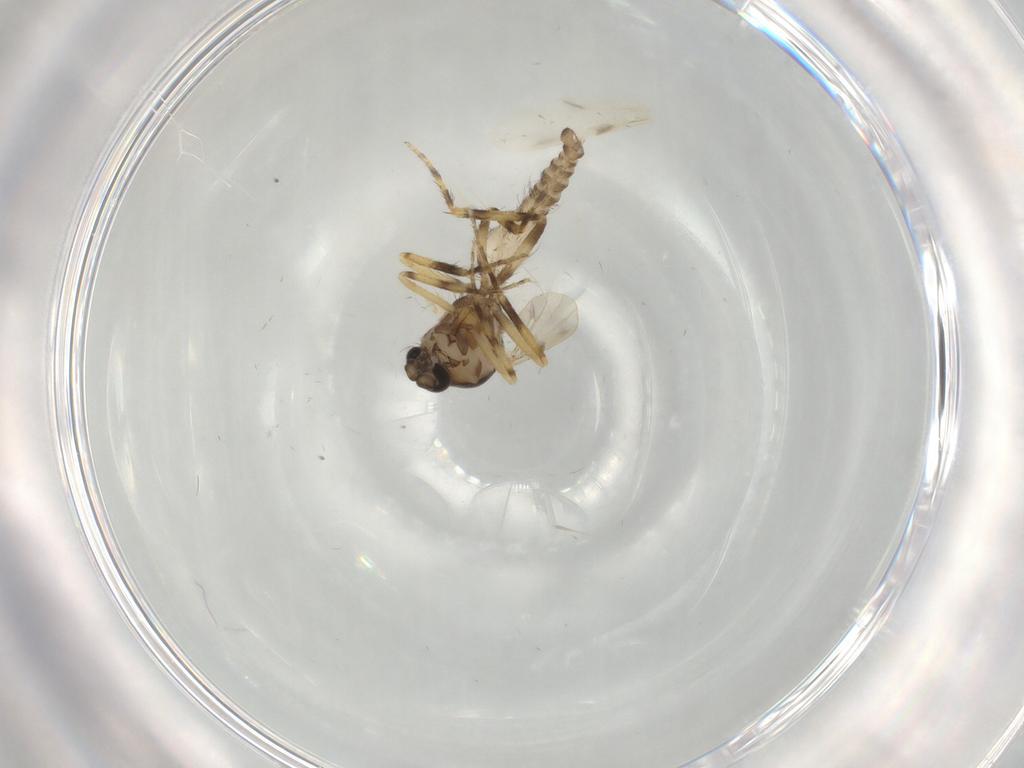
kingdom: Animalia
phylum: Arthropoda
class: Insecta
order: Diptera
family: Ceratopogonidae
